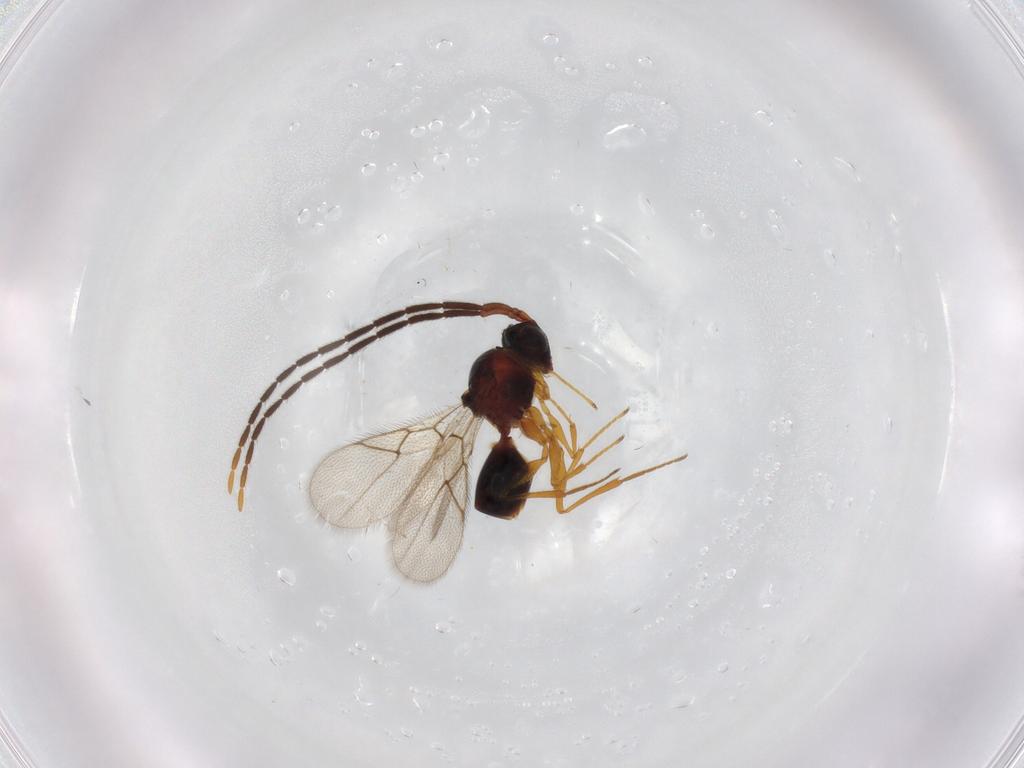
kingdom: Animalia
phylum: Arthropoda
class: Insecta
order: Hymenoptera
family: Figitidae
